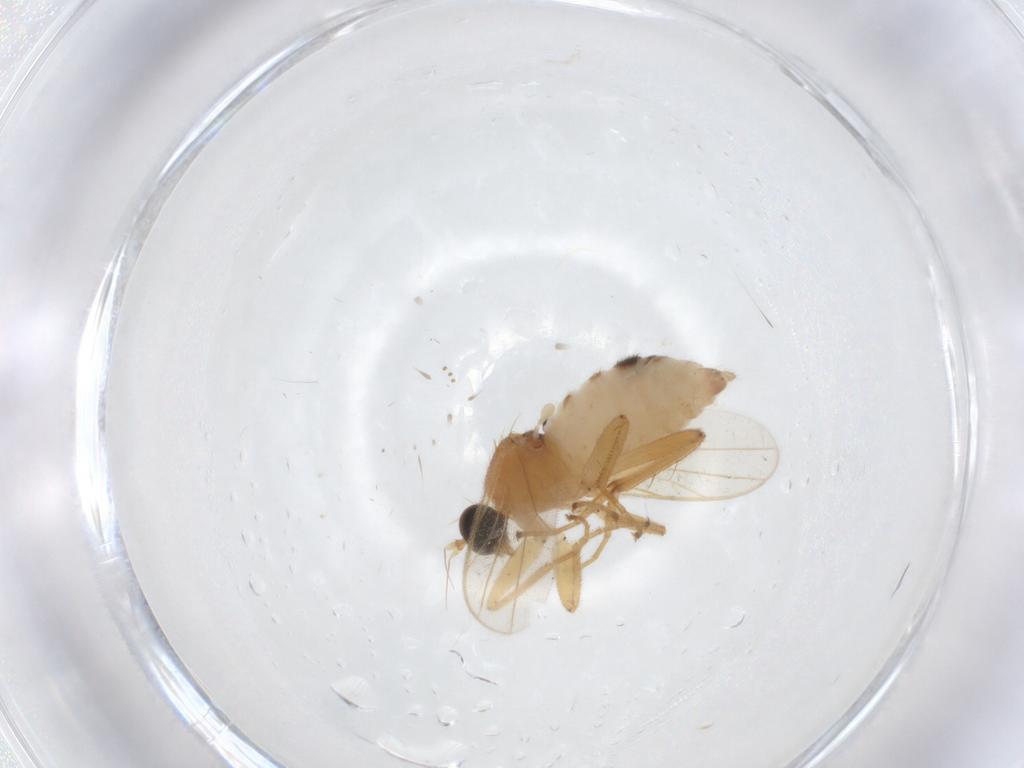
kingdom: Animalia
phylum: Arthropoda
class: Insecta
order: Diptera
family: Hybotidae
